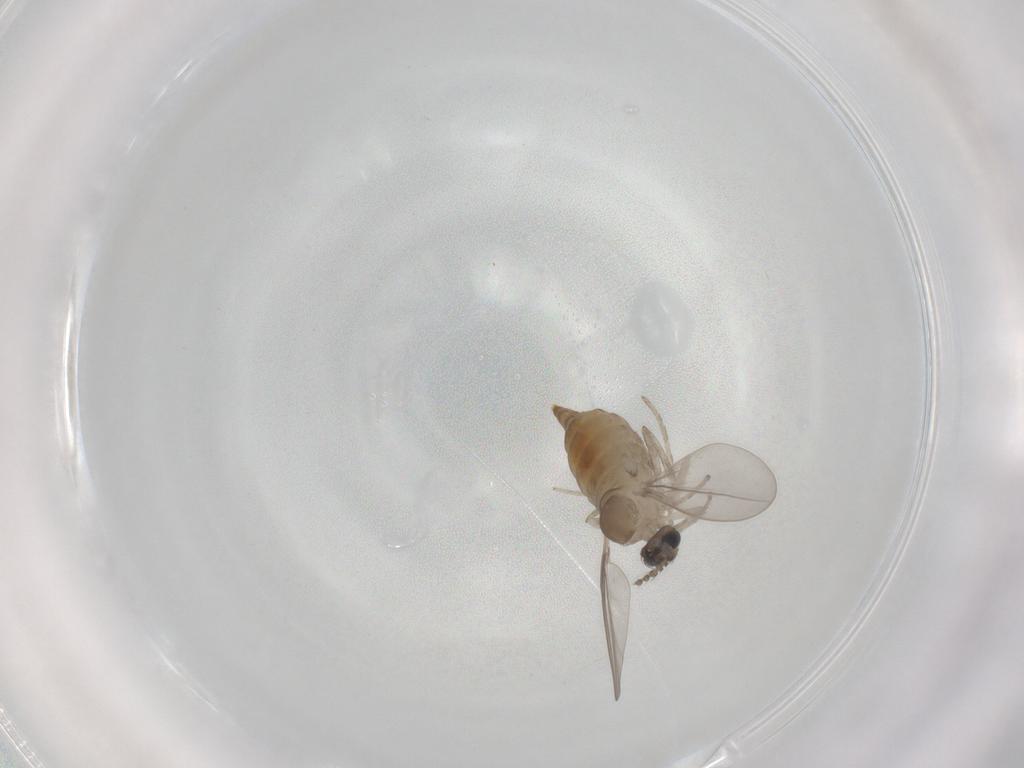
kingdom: Animalia
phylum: Arthropoda
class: Insecta
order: Diptera
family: Cecidomyiidae
